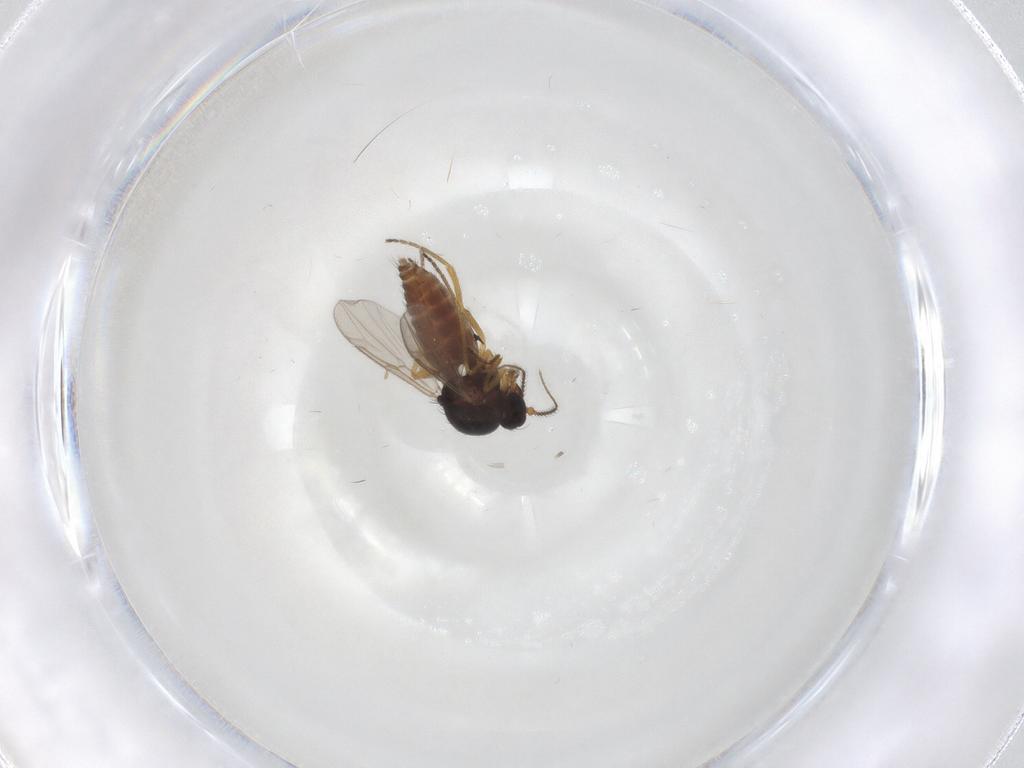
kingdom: Animalia
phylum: Arthropoda
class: Insecta
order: Diptera
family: Ceratopogonidae
